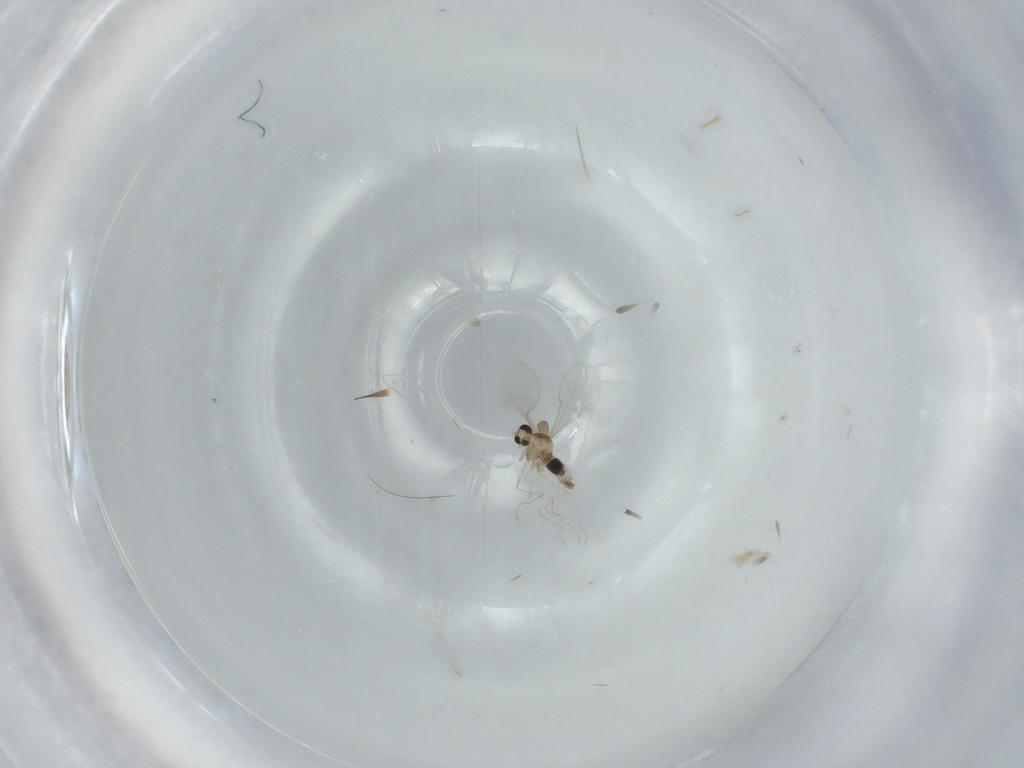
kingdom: Animalia
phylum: Arthropoda
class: Insecta
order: Diptera
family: Cecidomyiidae
